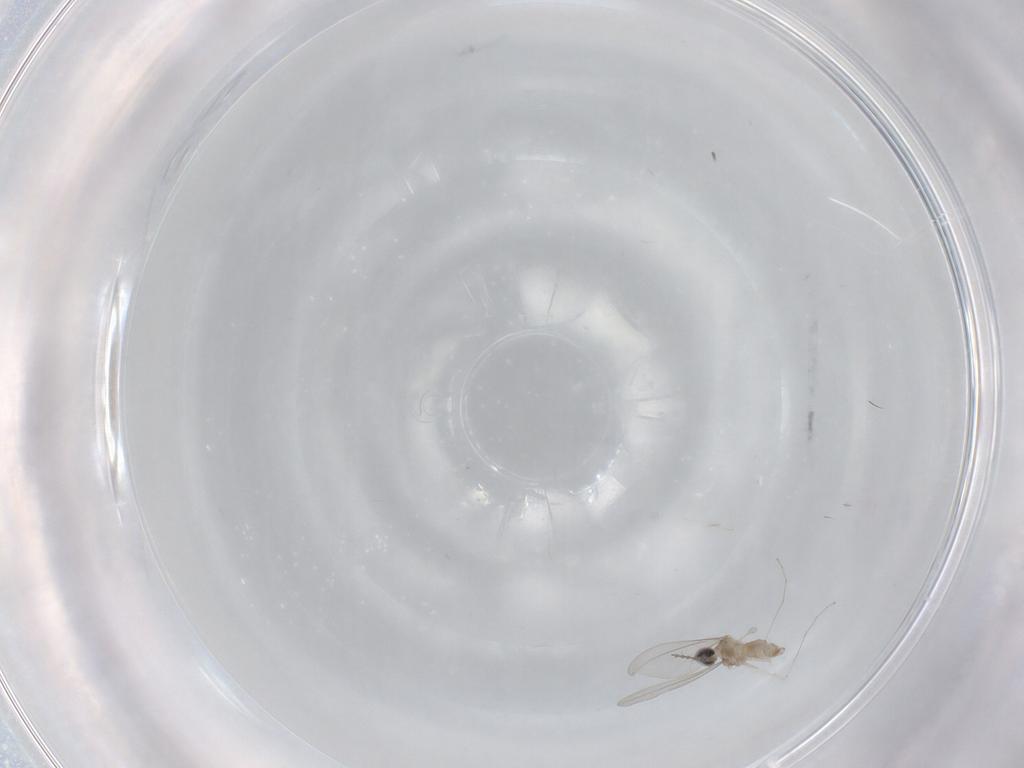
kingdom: Animalia
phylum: Arthropoda
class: Insecta
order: Diptera
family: Cecidomyiidae
